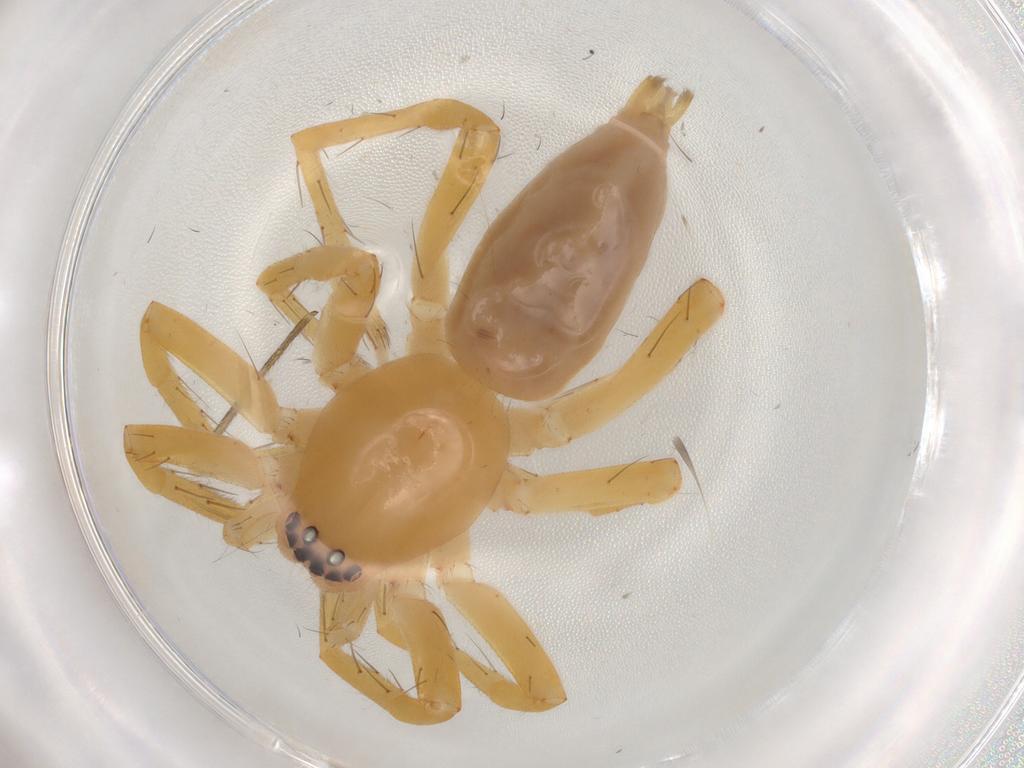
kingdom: Animalia
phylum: Arthropoda
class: Arachnida
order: Araneae
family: Clubionidae
